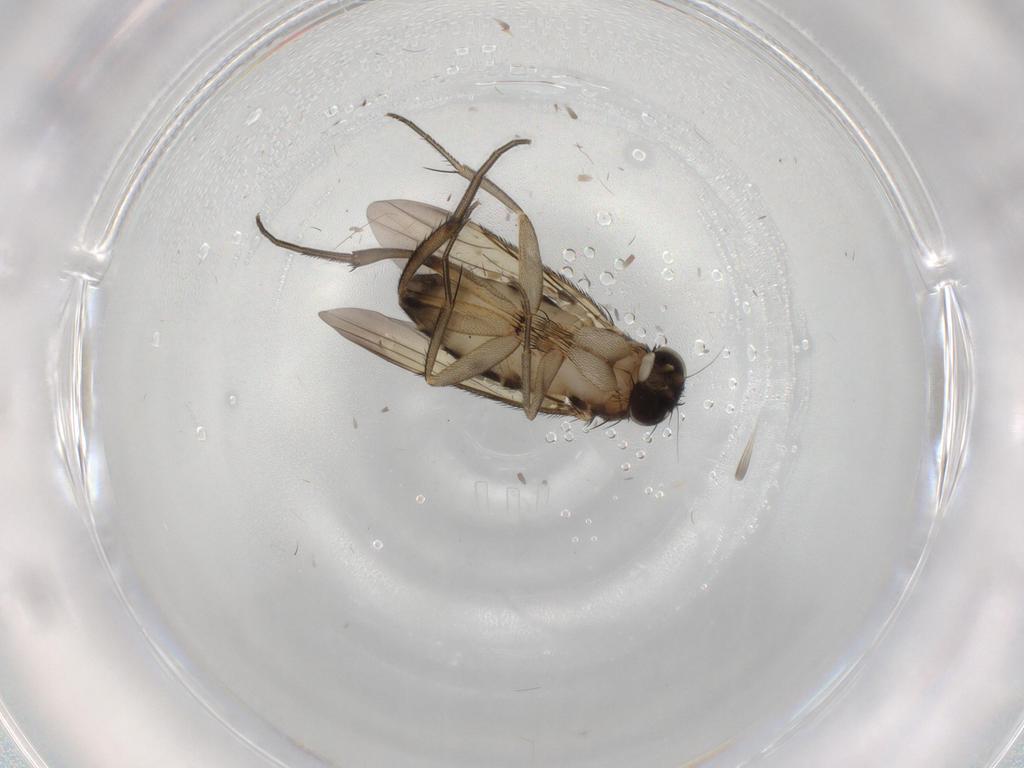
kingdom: Animalia
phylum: Arthropoda
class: Insecta
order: Diptera
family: Phoridae
